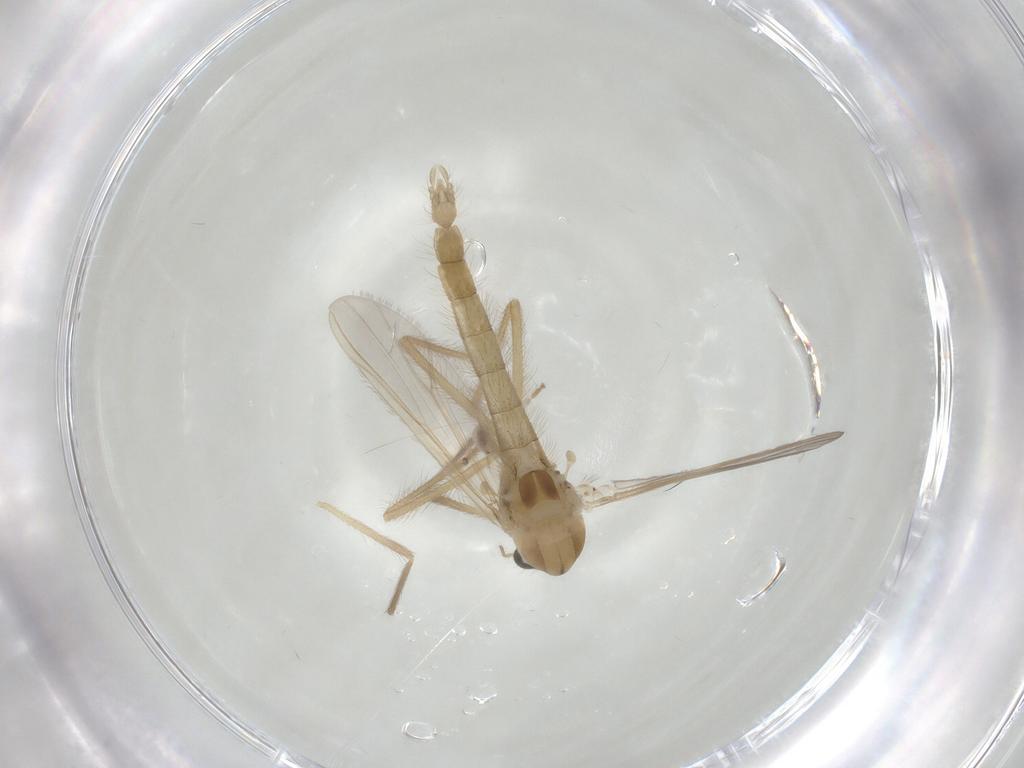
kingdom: Animalia
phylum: Arthropoda
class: Insecta
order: Diptera
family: Chironomidae
